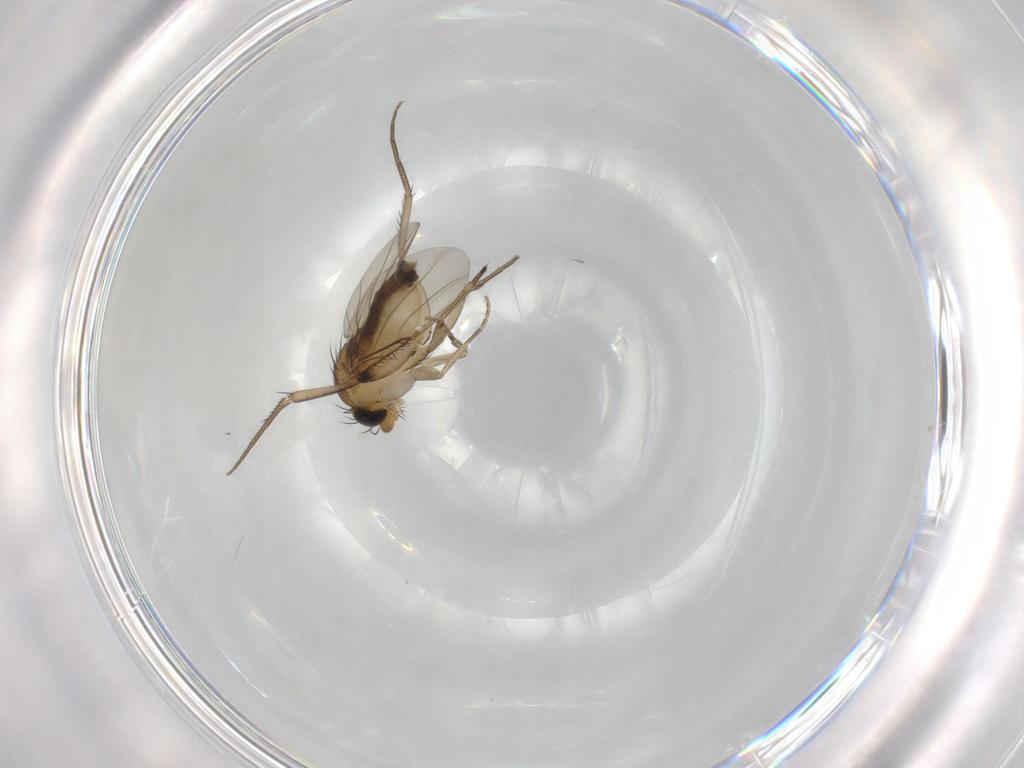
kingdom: Animalia
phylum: Arthropoda
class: Insecta
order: Diptera
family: Phoridae
